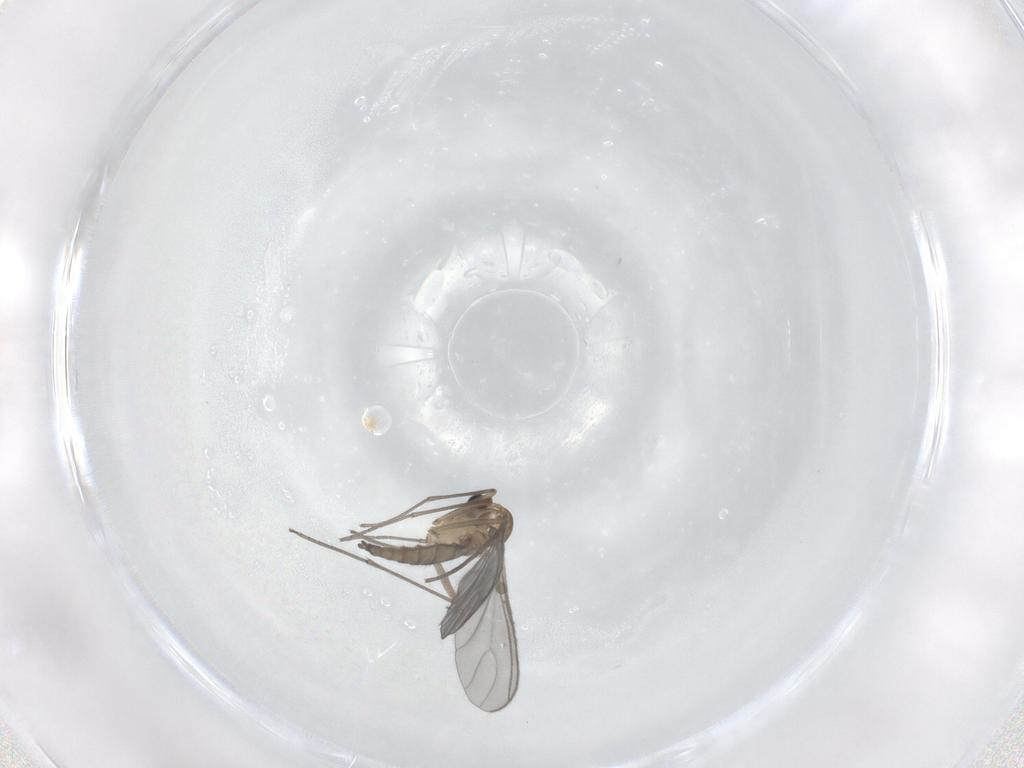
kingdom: Animalia
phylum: Arthropoda
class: Insecta
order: Diptera
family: Sciaridae
